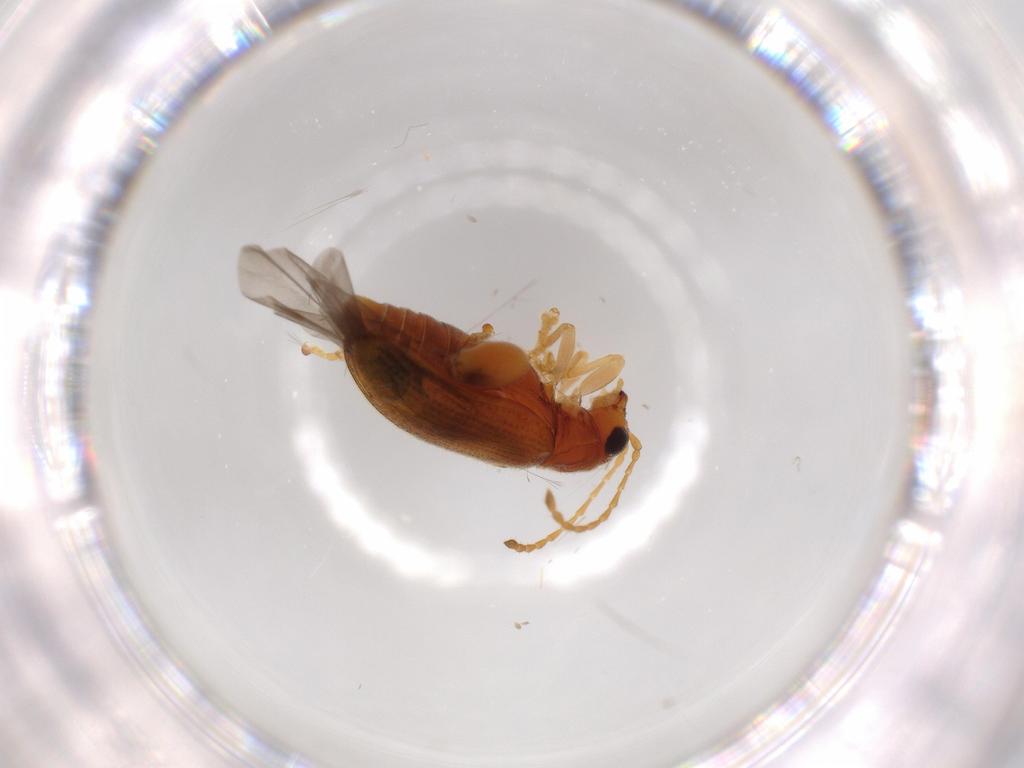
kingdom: Animalia
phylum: Arthropoda
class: Insecta
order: Coleoptera
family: Chrysomelidae
